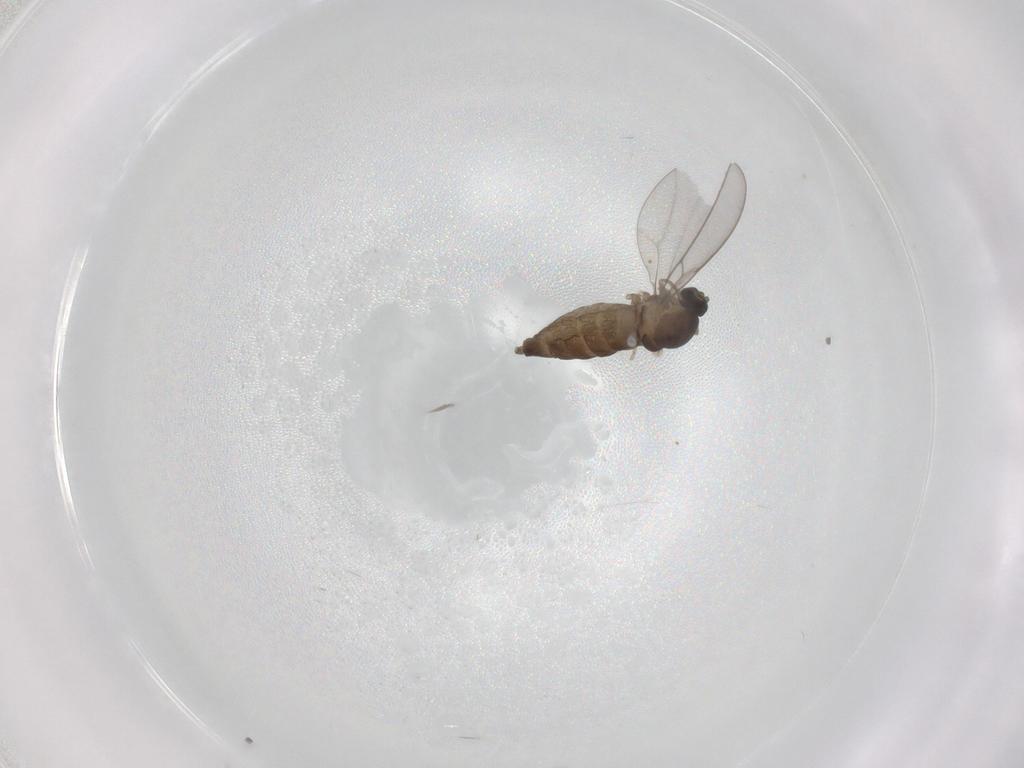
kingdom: Animalia
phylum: Arthropoda
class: Insecta
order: Diptera
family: Cecidomyiidae
